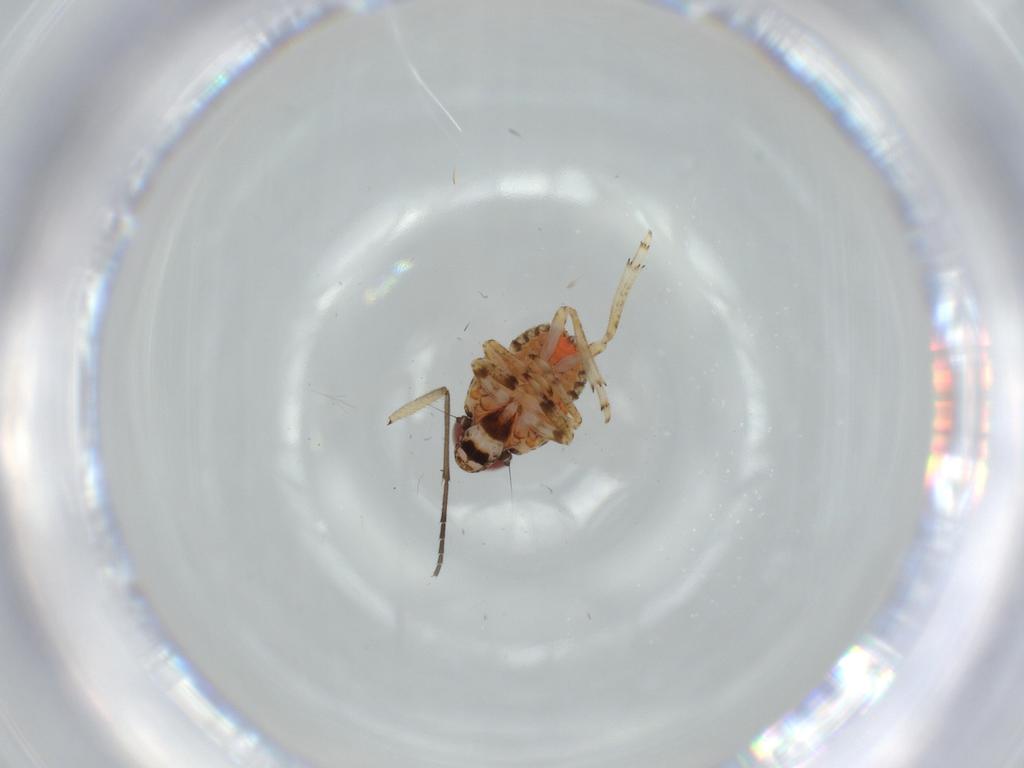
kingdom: Animalia
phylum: Arthropoda
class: Insecta
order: Hemiptera
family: Issidae
